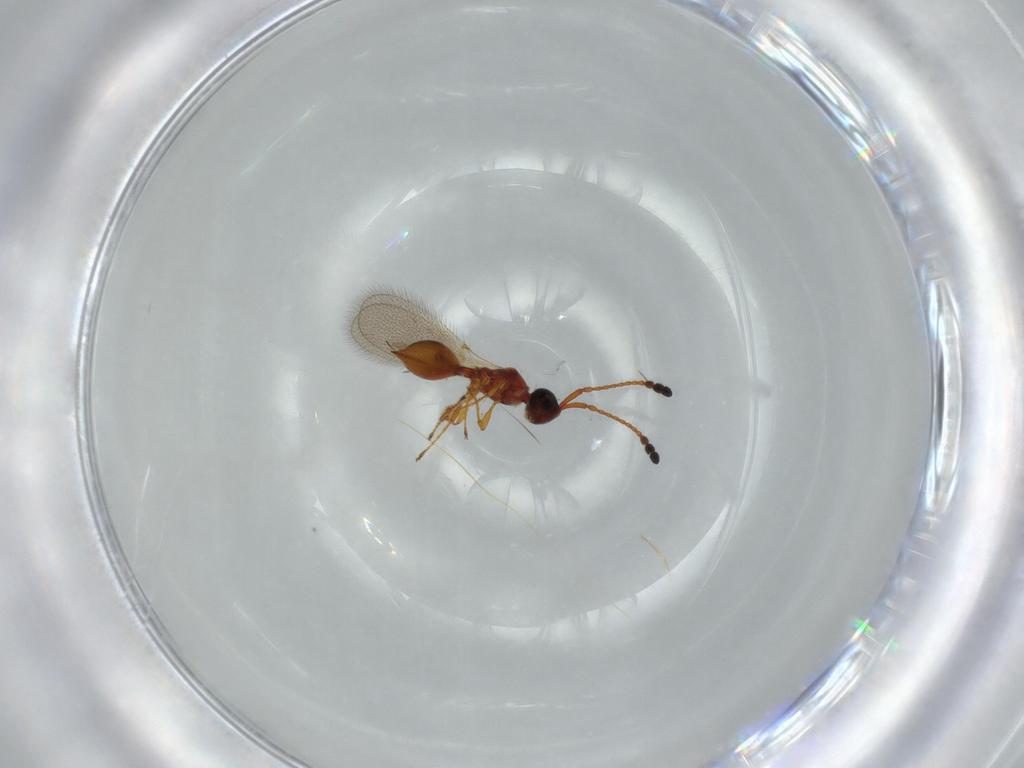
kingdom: Animalia
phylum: Arthropoda
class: Insecta
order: Hymenoptera
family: Diapriidae
